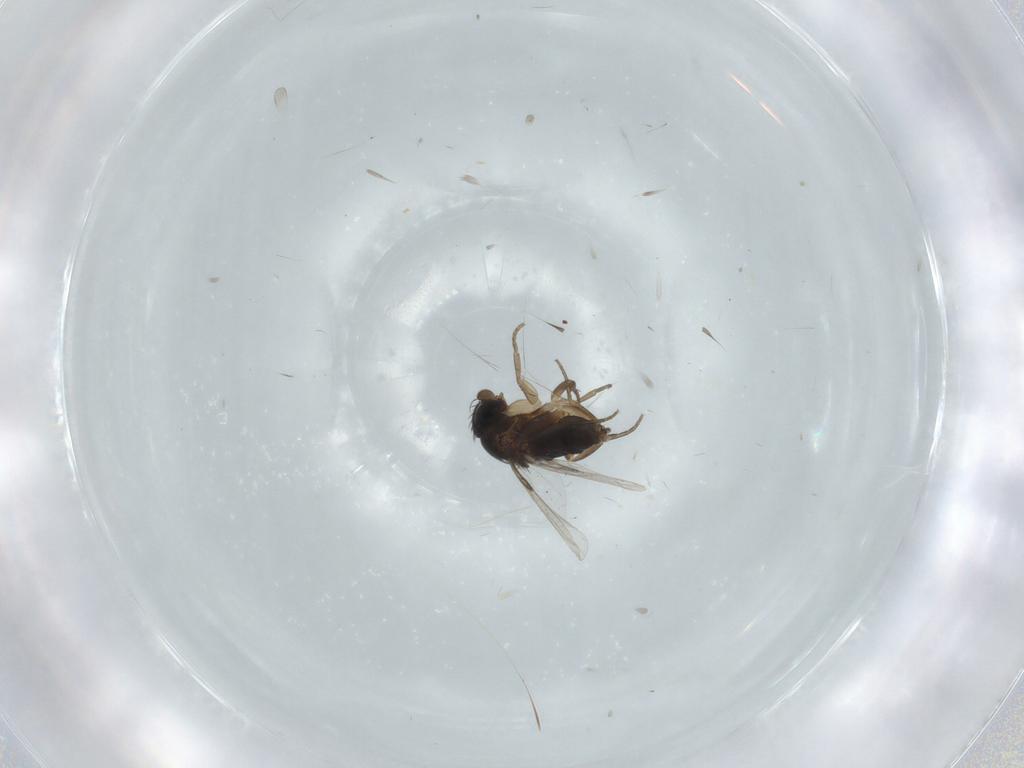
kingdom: Animalia
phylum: Arthropoda
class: Insecta
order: Diptera
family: Phoridae
